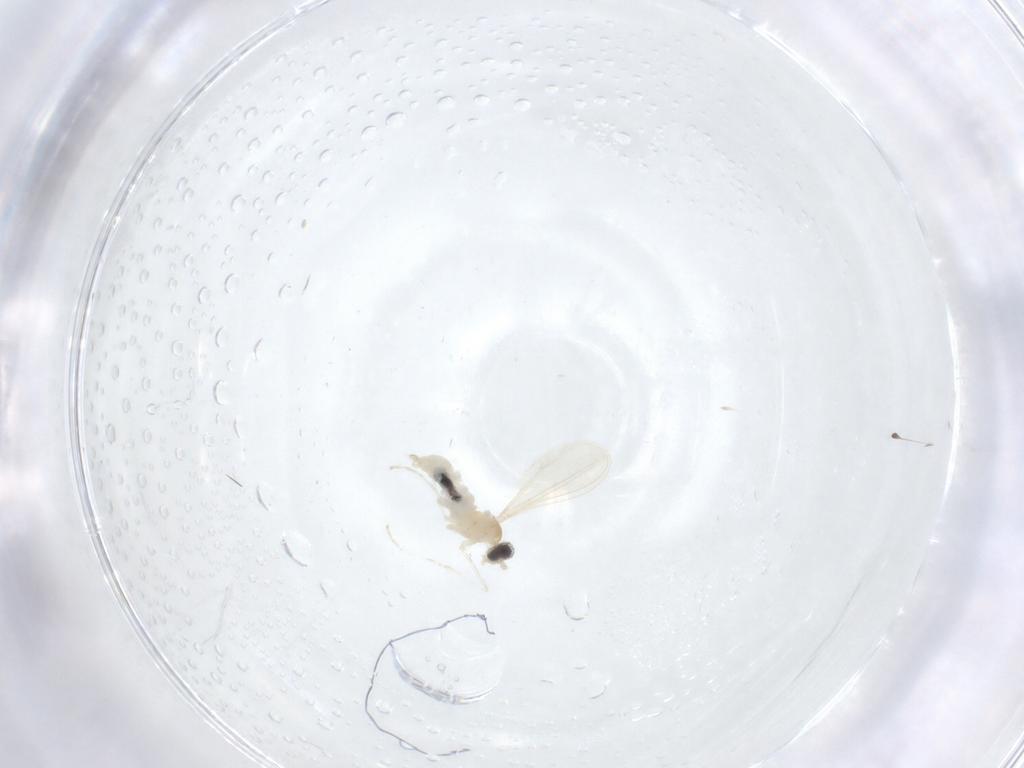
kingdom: Animalia
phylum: Arthropoda
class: Insecta
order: Diptera
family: Cecidomyiidae
